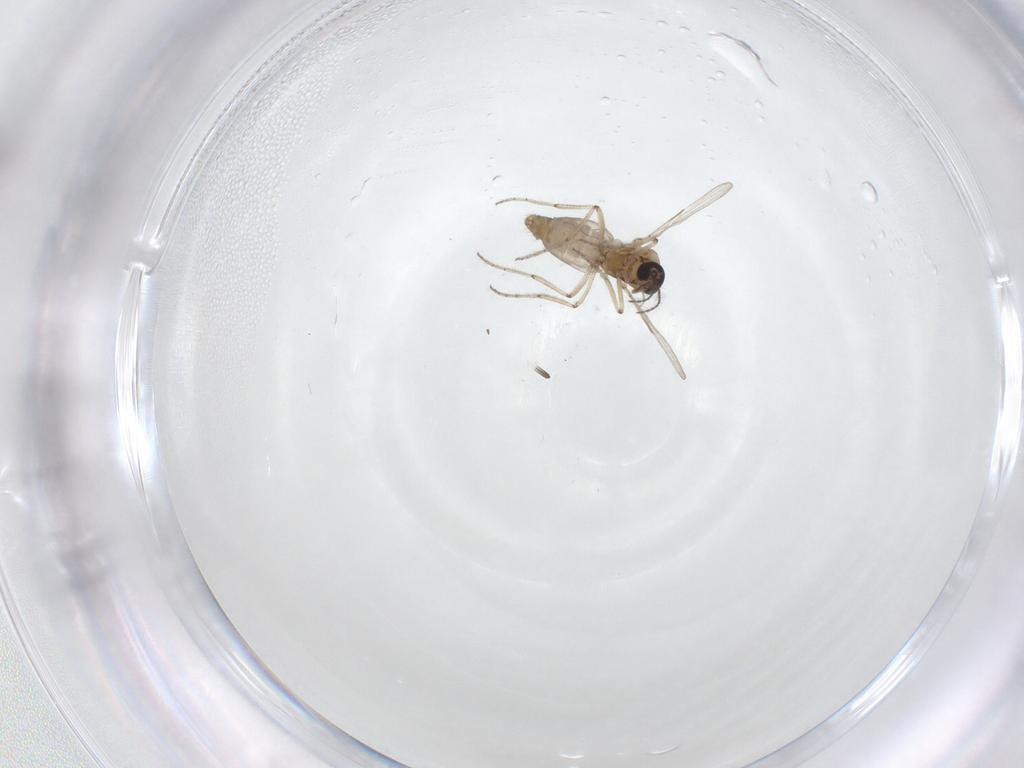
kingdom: Animalia
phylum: Arthropoda
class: Insecta
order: Diptera
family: Ceratopogonidae
